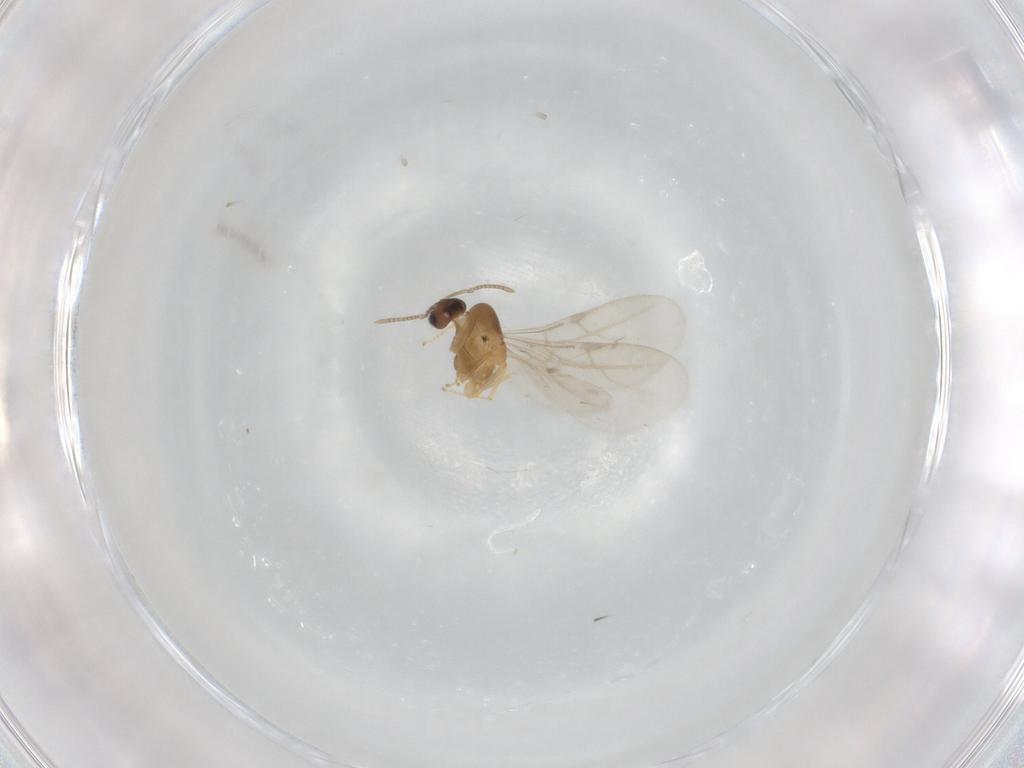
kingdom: Animalia
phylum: Arthropoda
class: Insecta
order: Hymenoptera
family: Formicidae
